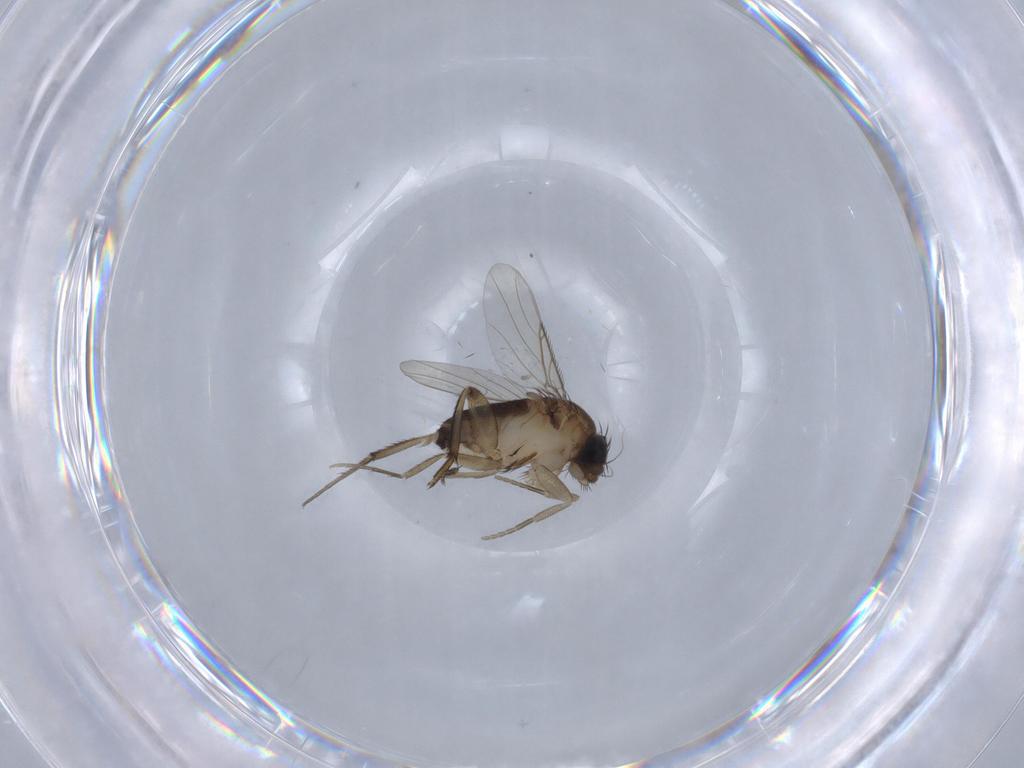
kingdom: Animalia
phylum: Arthropoda
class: Insecta
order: Diptera
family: Phoridae
